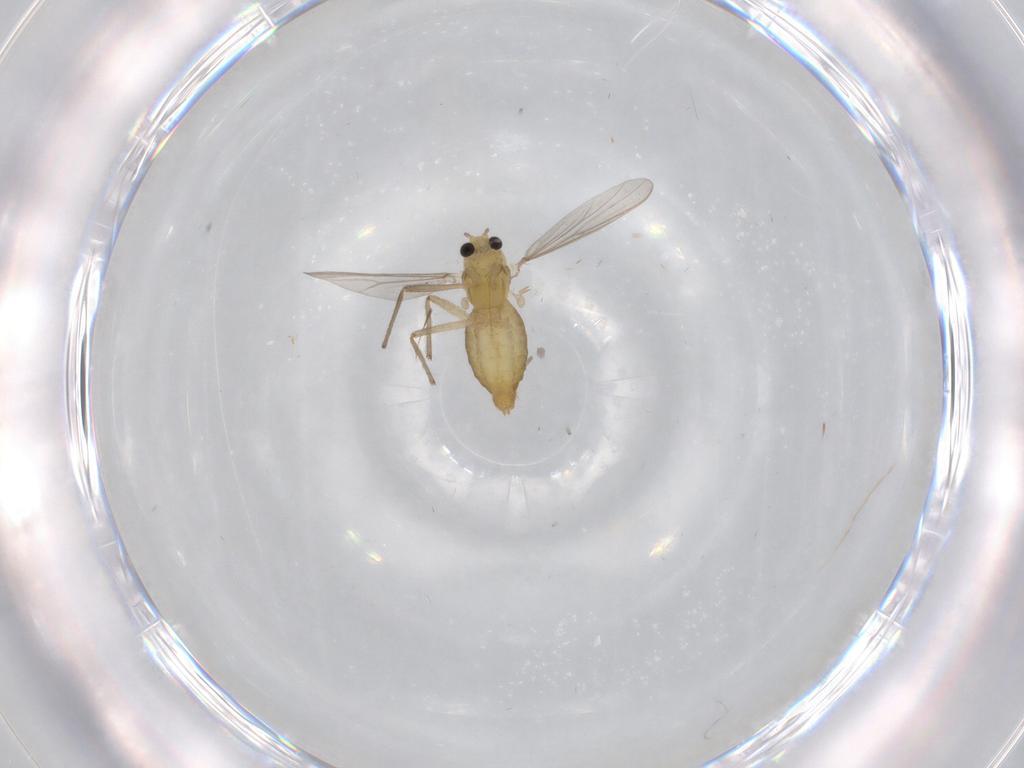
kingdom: Animalia
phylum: Arthropoda
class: Insecta
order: Diptera
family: Chironomidae
